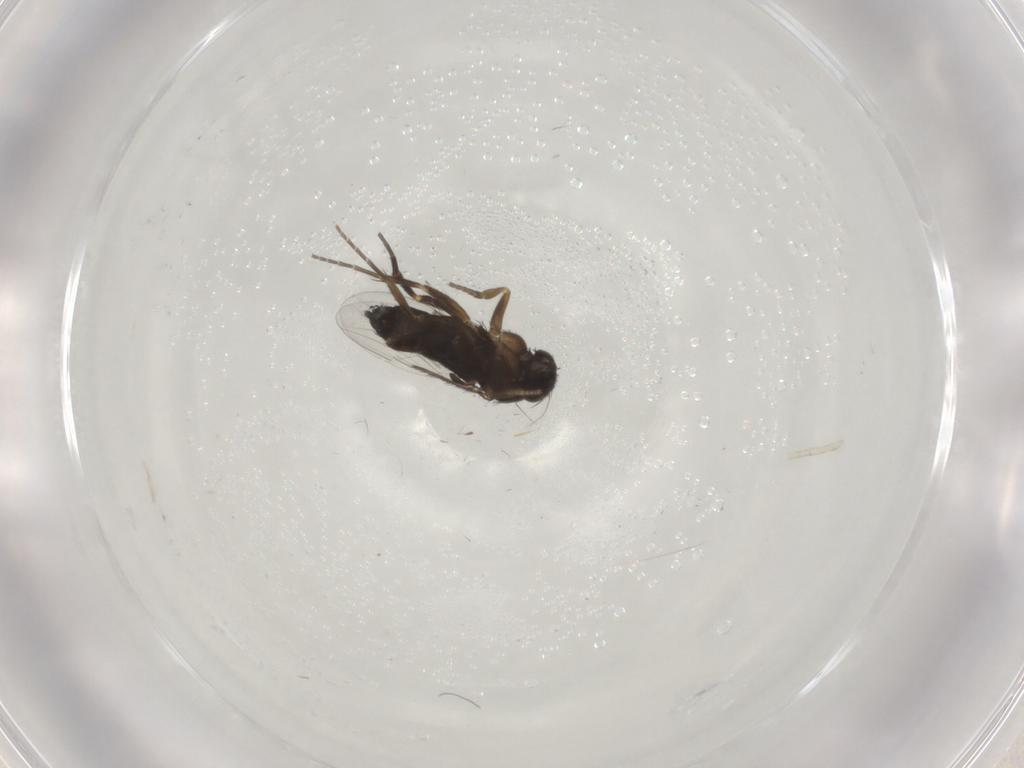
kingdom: Animalia
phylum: Arthropoda
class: Insecta
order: Diptera
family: Phoridae
